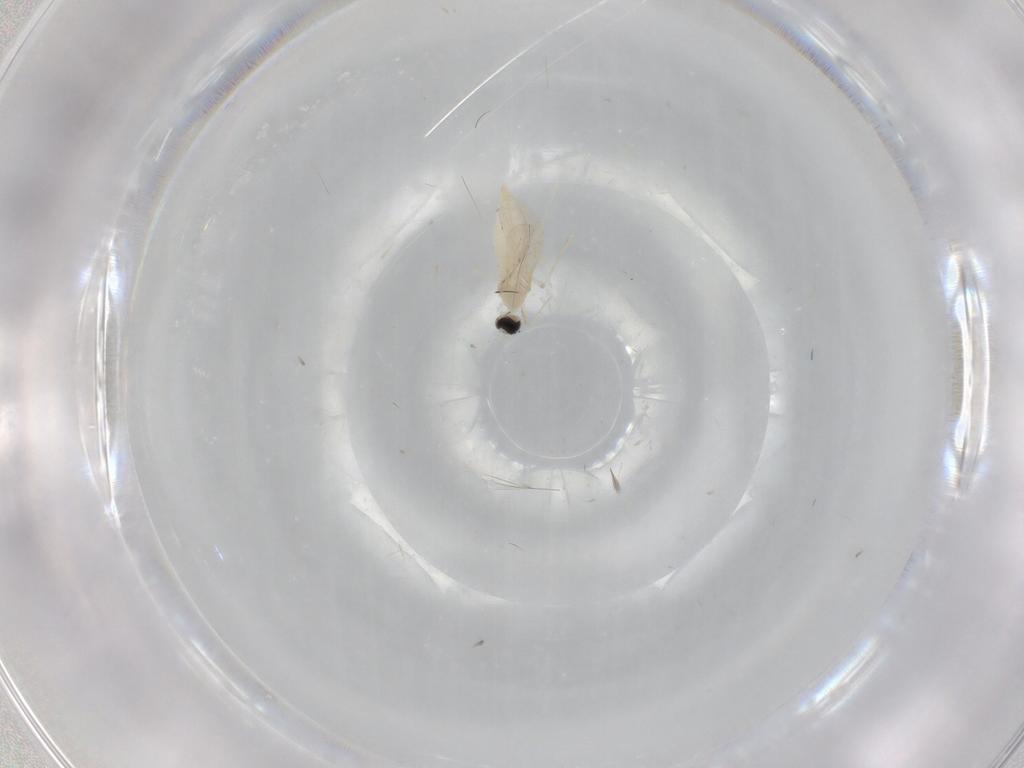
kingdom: Animalia
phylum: Arthropoda
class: Insecta
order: Diptera
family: Cecidomyiidae
